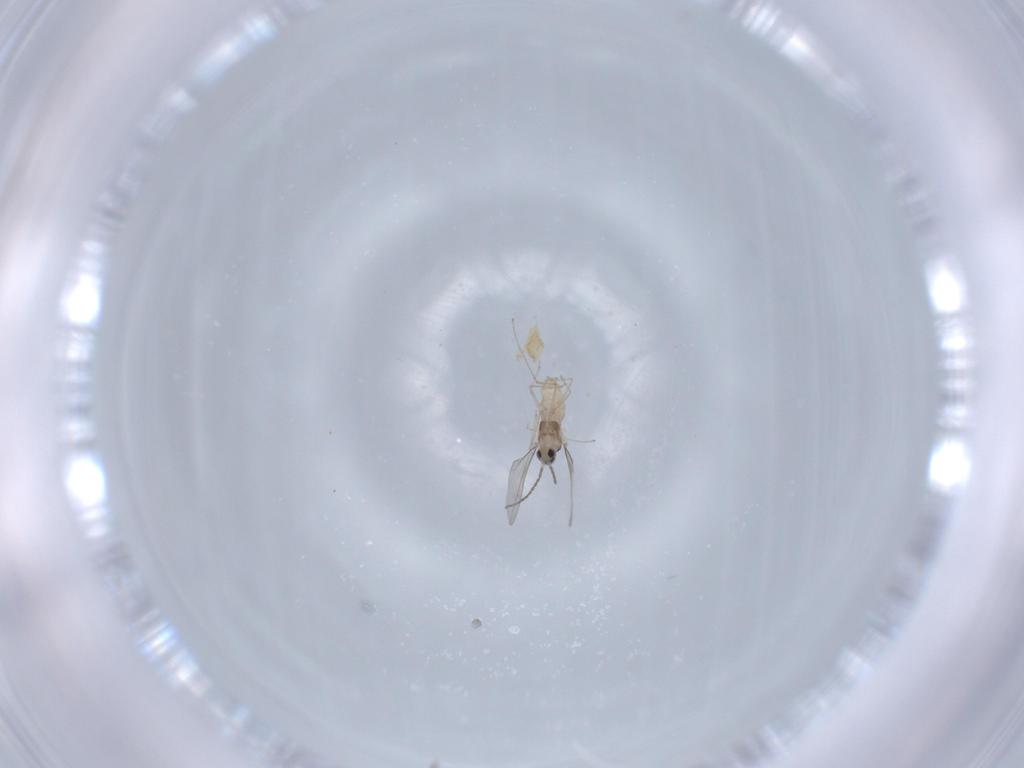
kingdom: Animalia
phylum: Arthropoda
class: Insecta
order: Diptera
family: Cecidomyiidae
